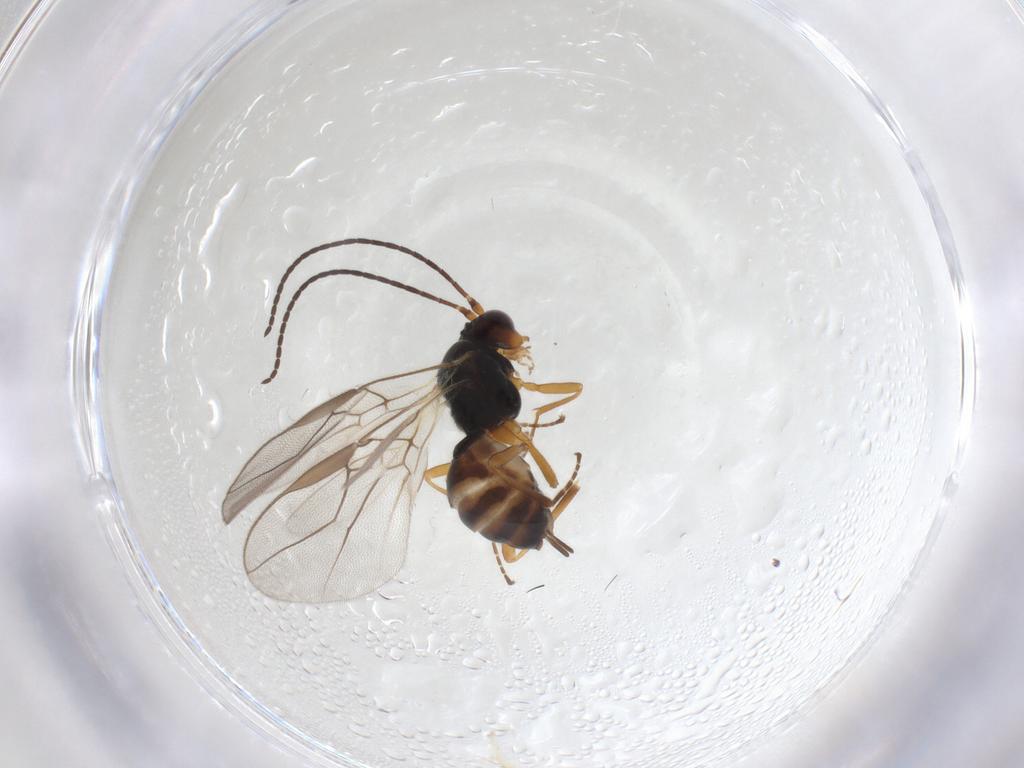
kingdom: Animalia
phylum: Arthropoda
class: Insecta
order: Hymenoptera
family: Braconidae
